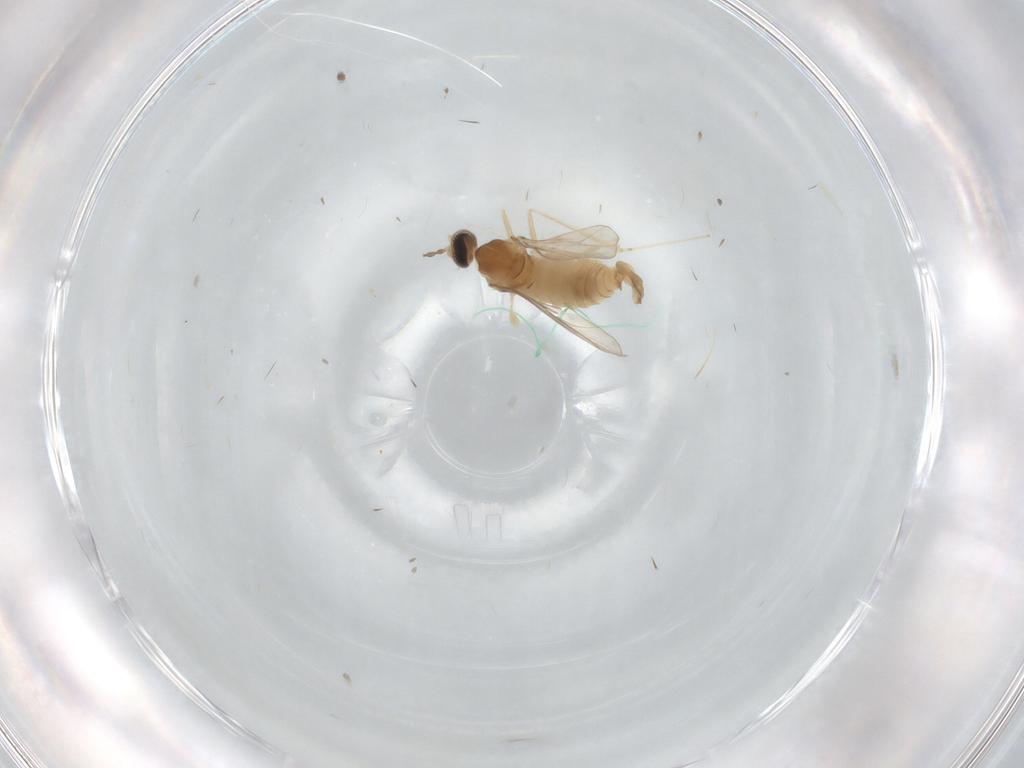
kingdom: Animalia
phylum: Arthropoda
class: Insecta
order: Diptera
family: Cecidomyiidae
